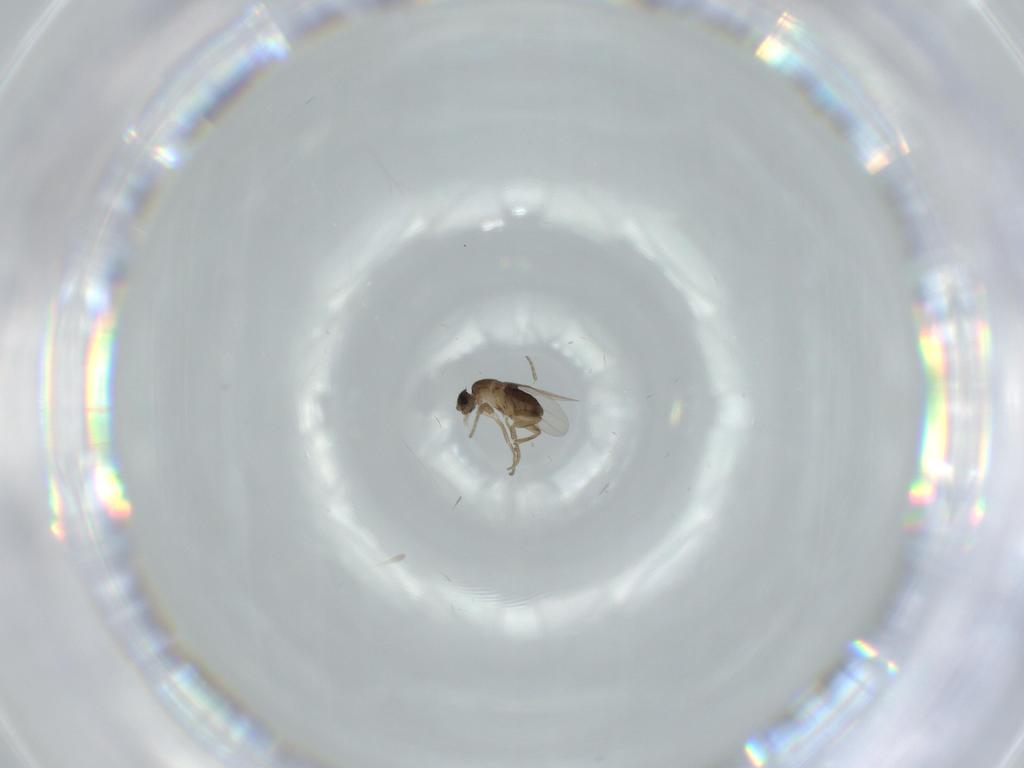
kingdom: Animalia
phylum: Arthropoda
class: Insecta
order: Diptera
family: Phoridae
